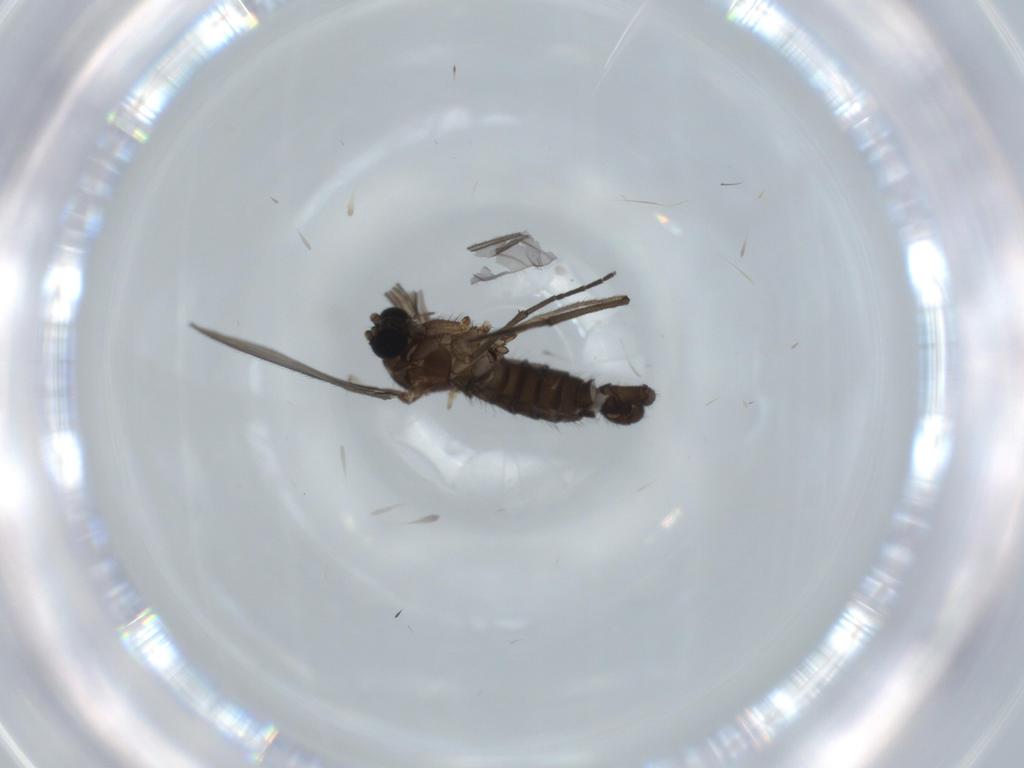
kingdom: Animalia
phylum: Arthropoda
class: Insecta
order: Diptera
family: Sciaridae
